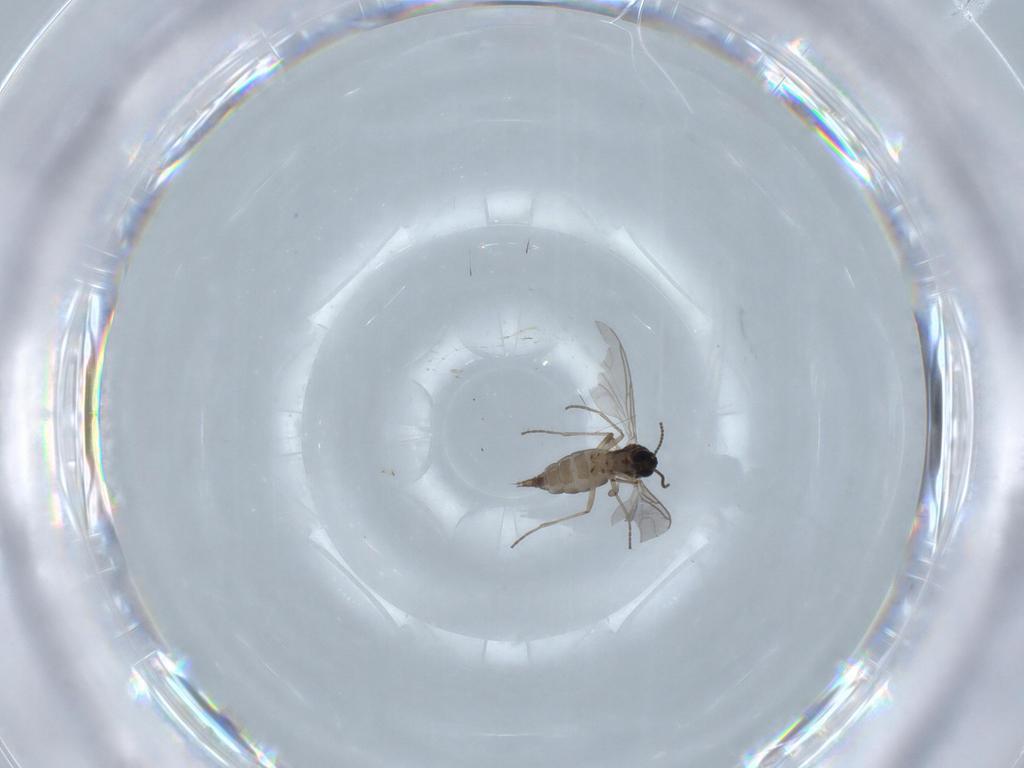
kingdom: Animalia
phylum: Arthropoda
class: Insecta
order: Diptera
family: Sciaridae
